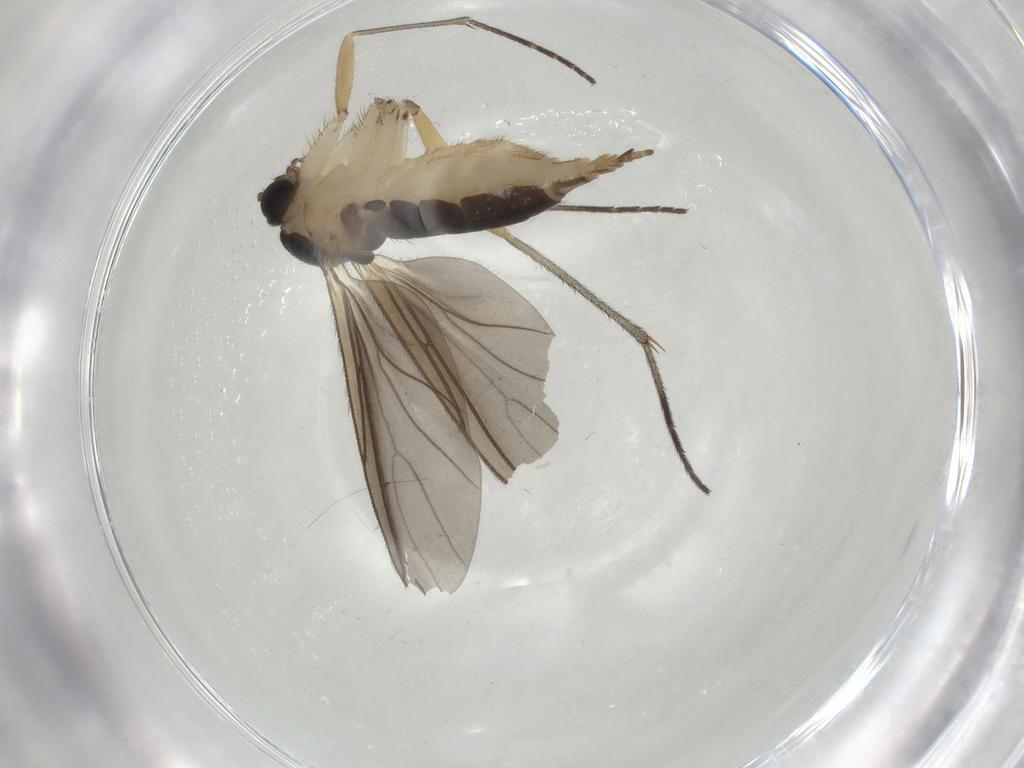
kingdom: Animalia
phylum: Arthropoda
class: Insecta
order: Diptera
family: Sciaridae
